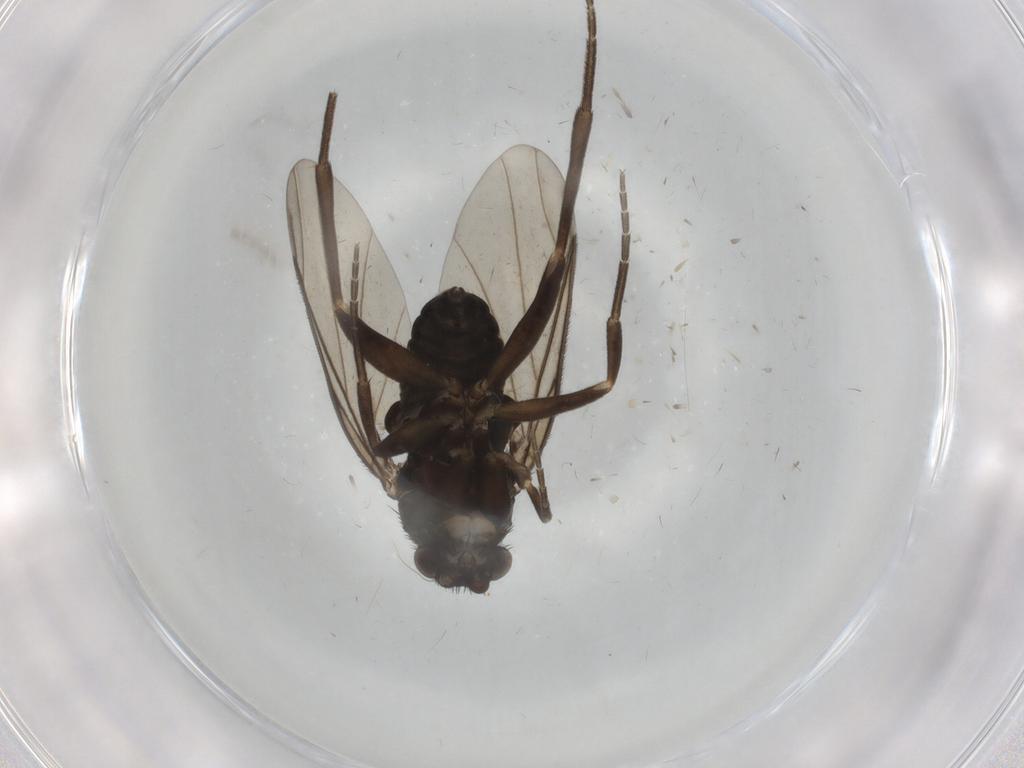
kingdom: Animalia
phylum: Arthropoda
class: Insecta
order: Diptera
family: Phoridae
